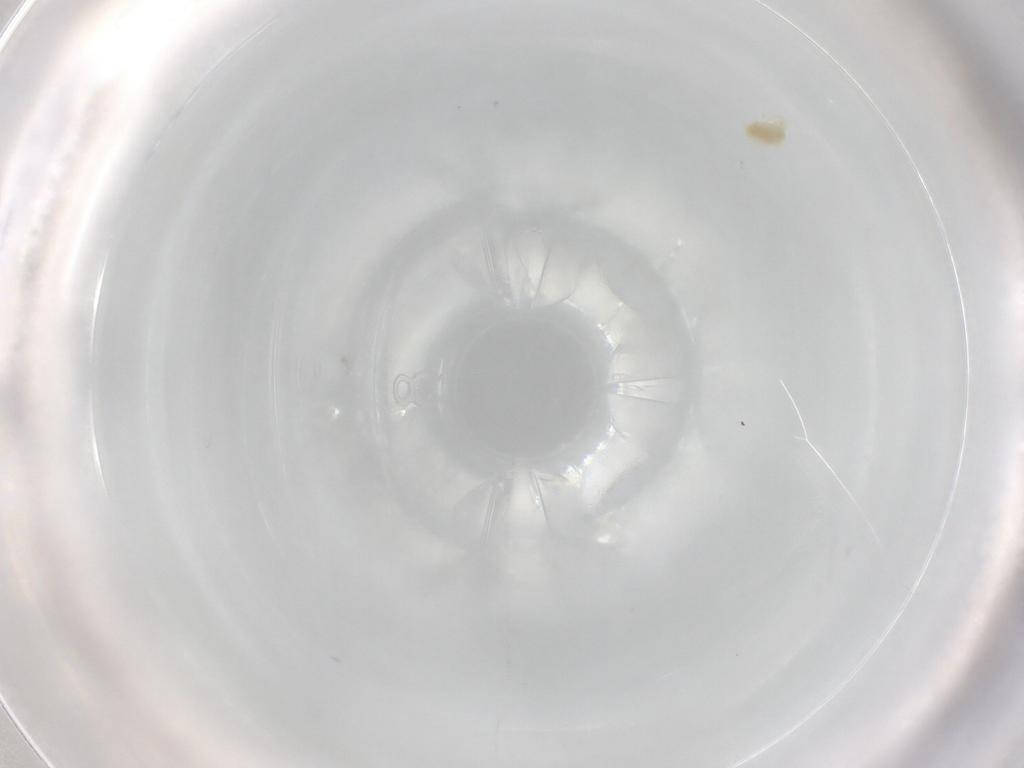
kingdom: Animalia
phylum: Arthropoda
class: Arachnida
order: Trombidiformes
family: Eupodidae
